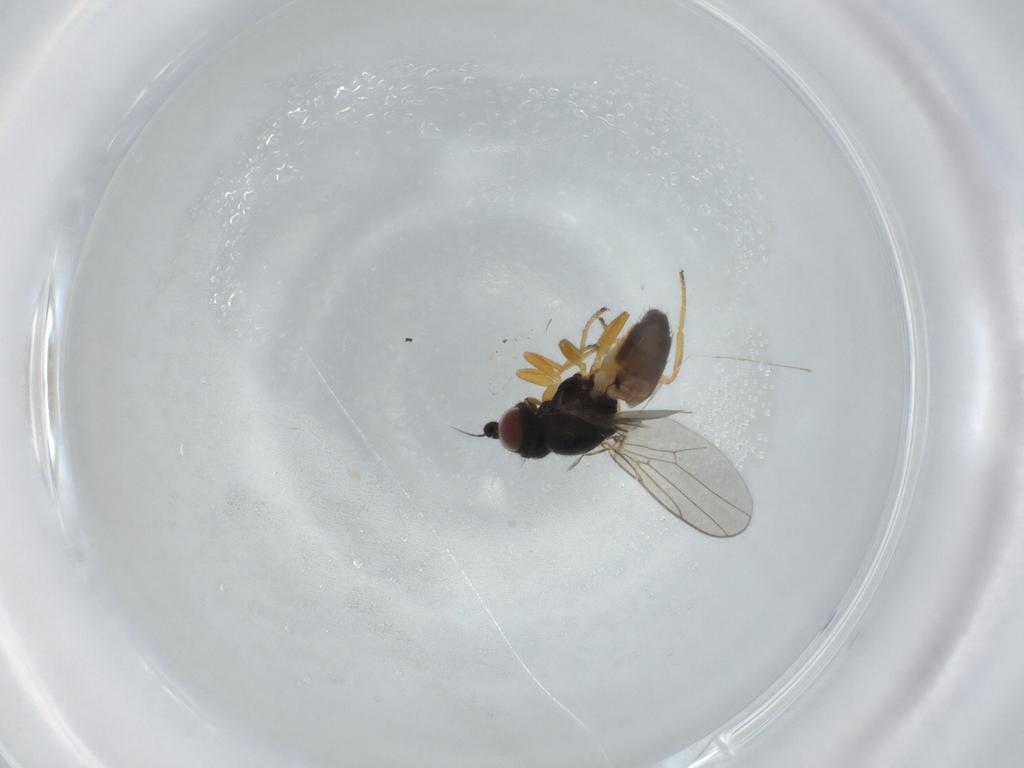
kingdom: Animalia
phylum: Arthropoda
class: Insecta
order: Diptera
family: Chloropidae
